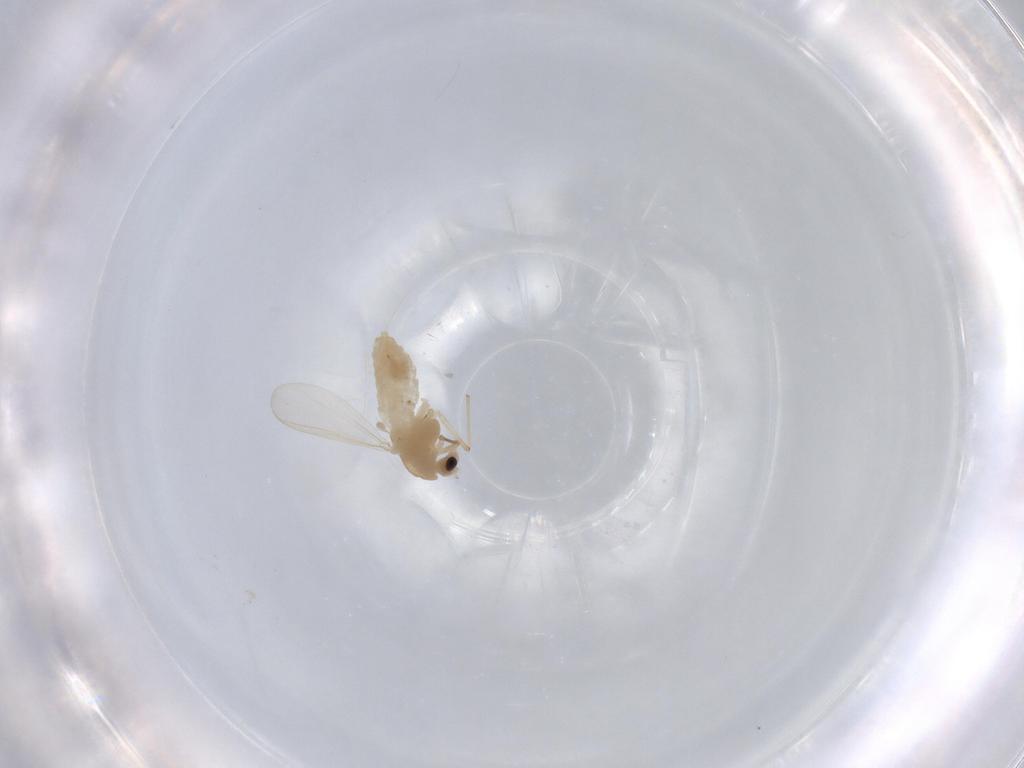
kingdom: Animalia
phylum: Arthropoda
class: Insecta
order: Diptera
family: Chironomidae
